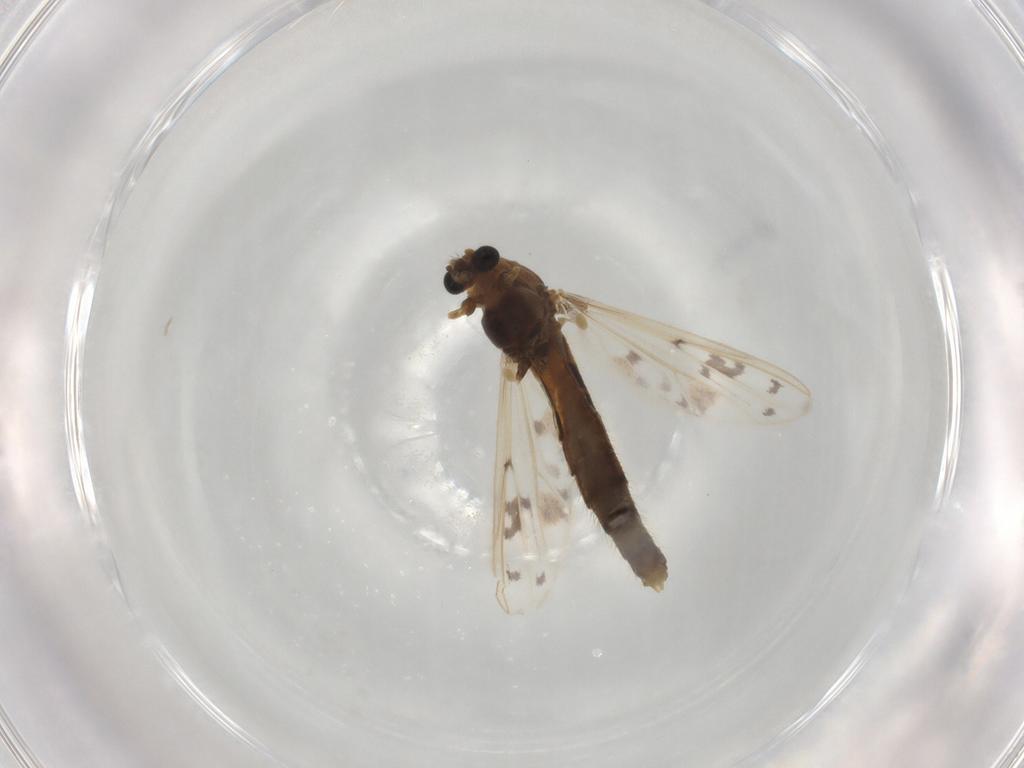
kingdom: Animalia
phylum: Arthropoda
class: Insecta
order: Diptera
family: Chironomidae
